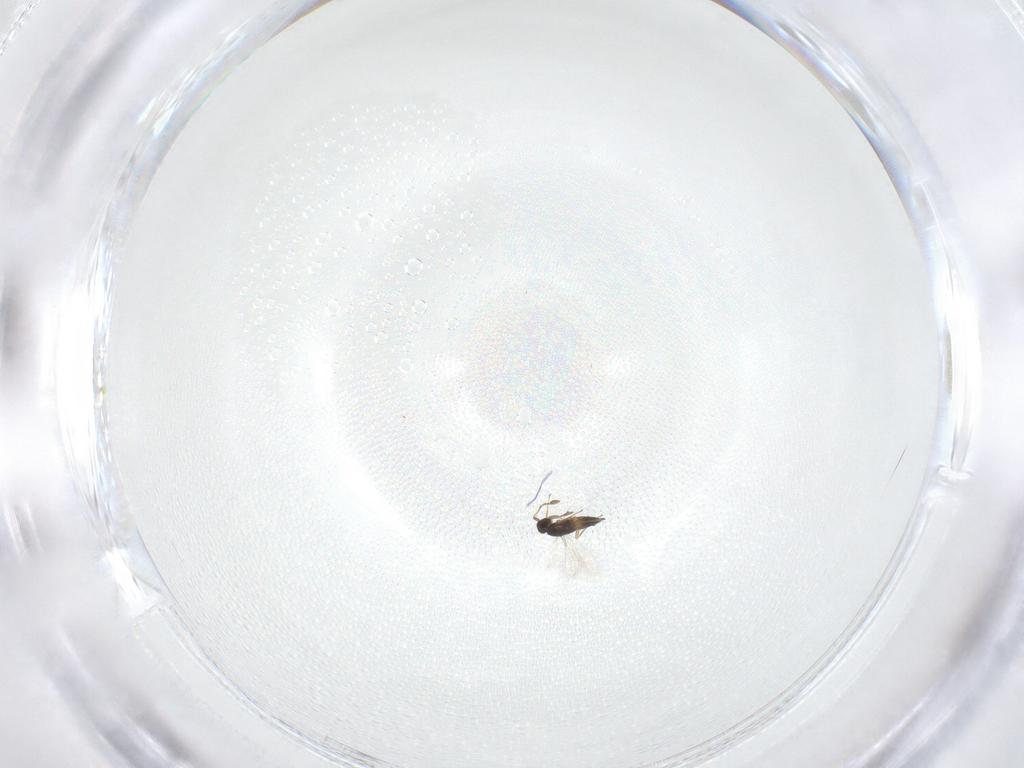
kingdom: Animalia
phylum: Arthropoda
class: Insecta
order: Hymenoptera
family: Mymaridae
